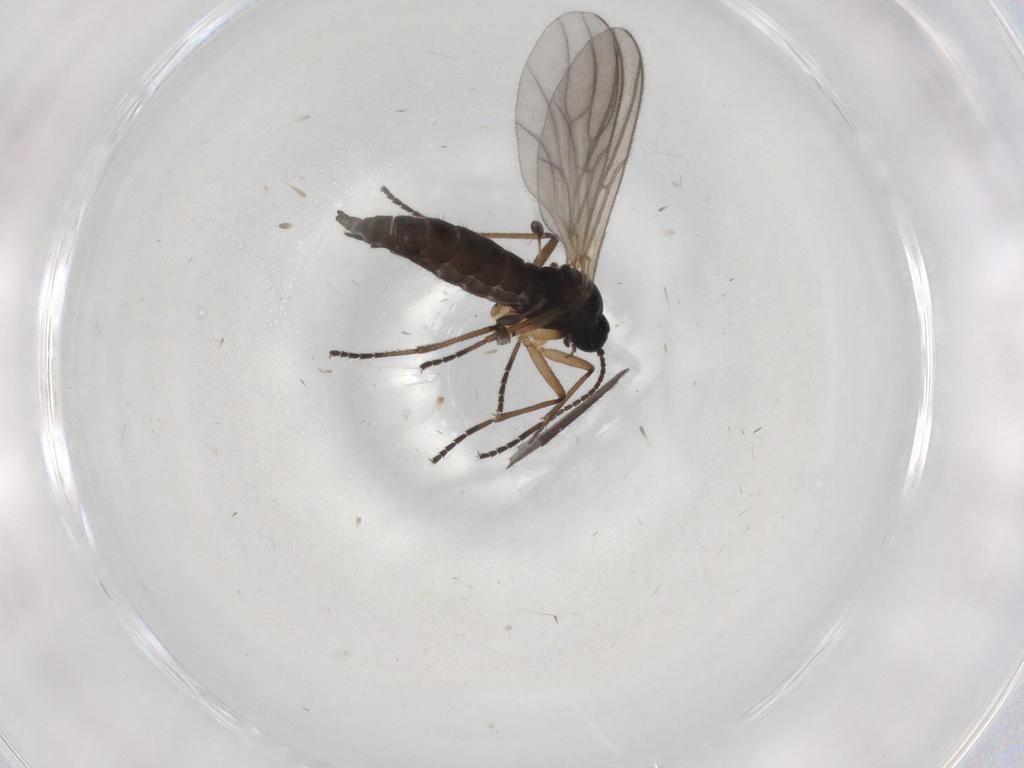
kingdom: Animalia
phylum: Arthropoda
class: Insecta
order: Diptera
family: Sciaridae
